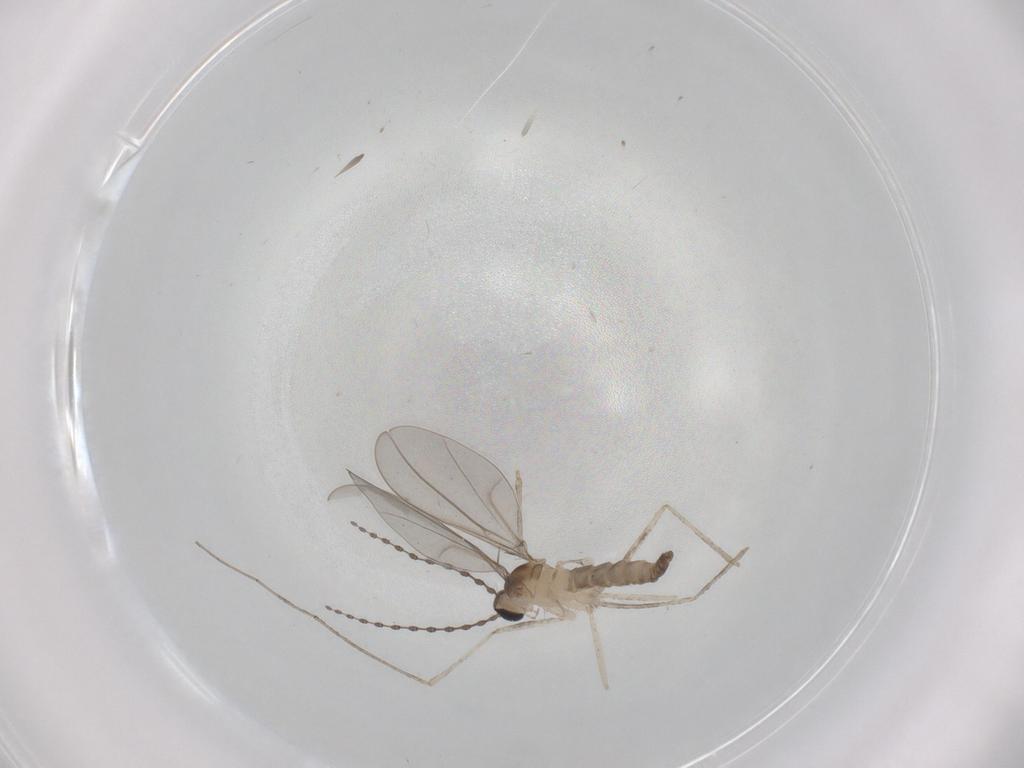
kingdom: Animalia
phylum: Arthropoda
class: Insecta
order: Diptera
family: Cecidomyiidae
